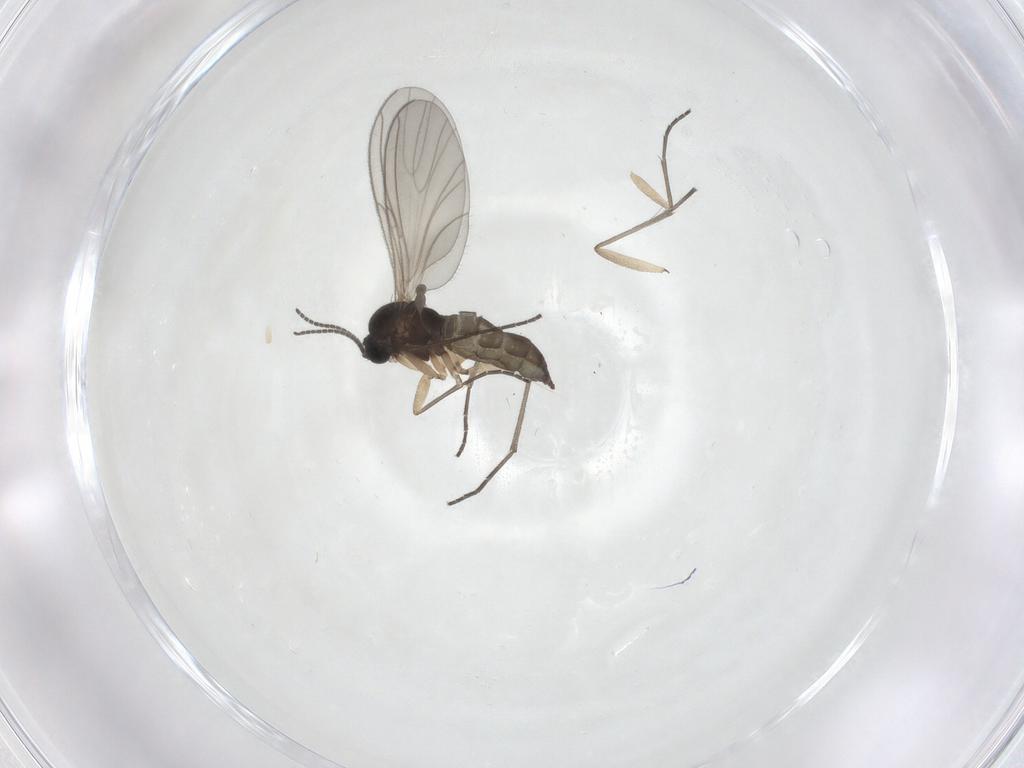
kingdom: Animalia
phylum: Arthropoda
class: Insecta
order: Diptera
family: Sciaridae
